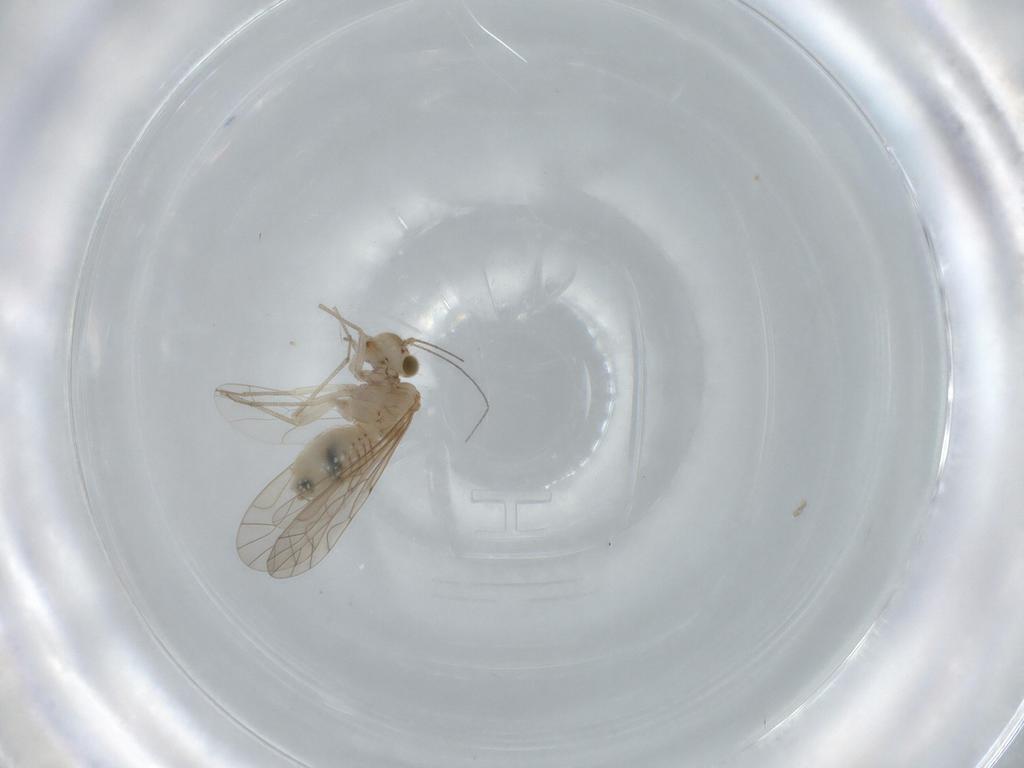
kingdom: Animalia
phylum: Arthropoda
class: Insecta
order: Psocodea
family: Lachesillidae
